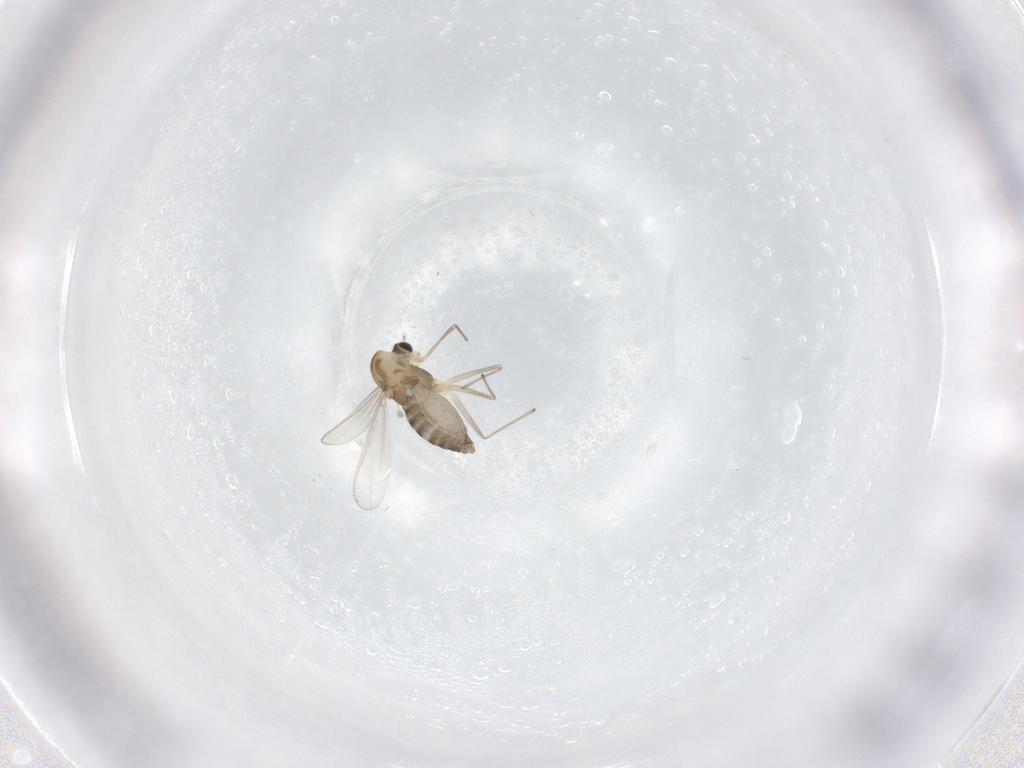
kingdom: Animalia
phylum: Arthropoda
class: Insecta
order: Diptera
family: Chironomidae
